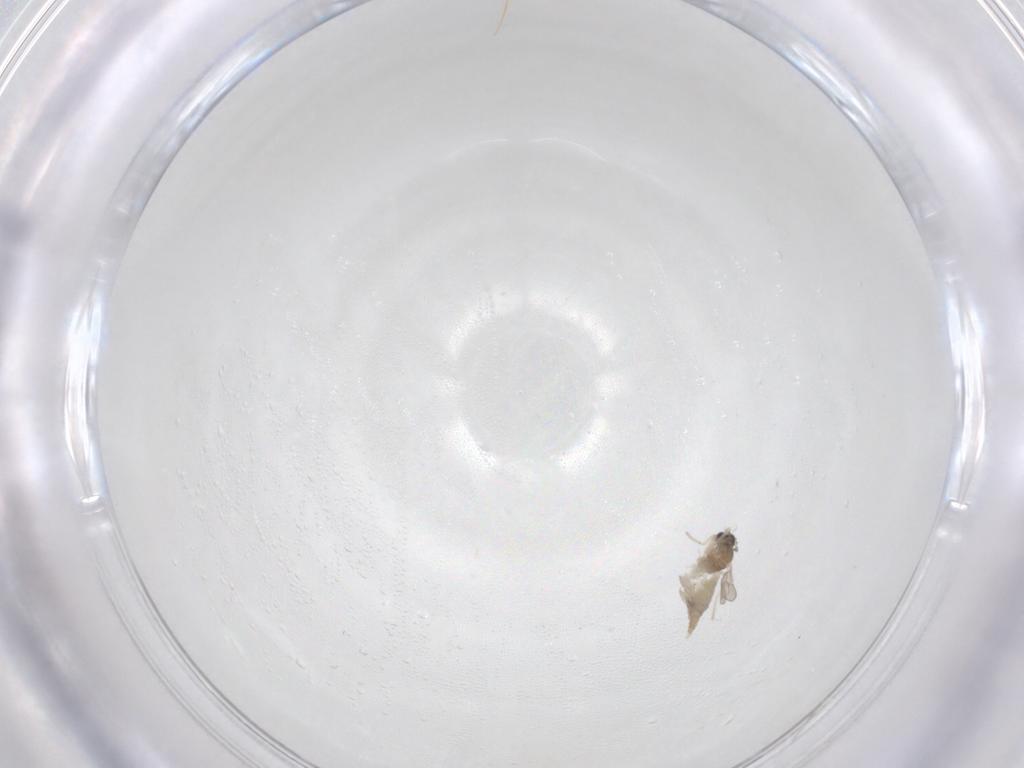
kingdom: Animalia
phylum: Arthropoda
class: Insecta
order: Diptera
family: Cecidomyiidae
